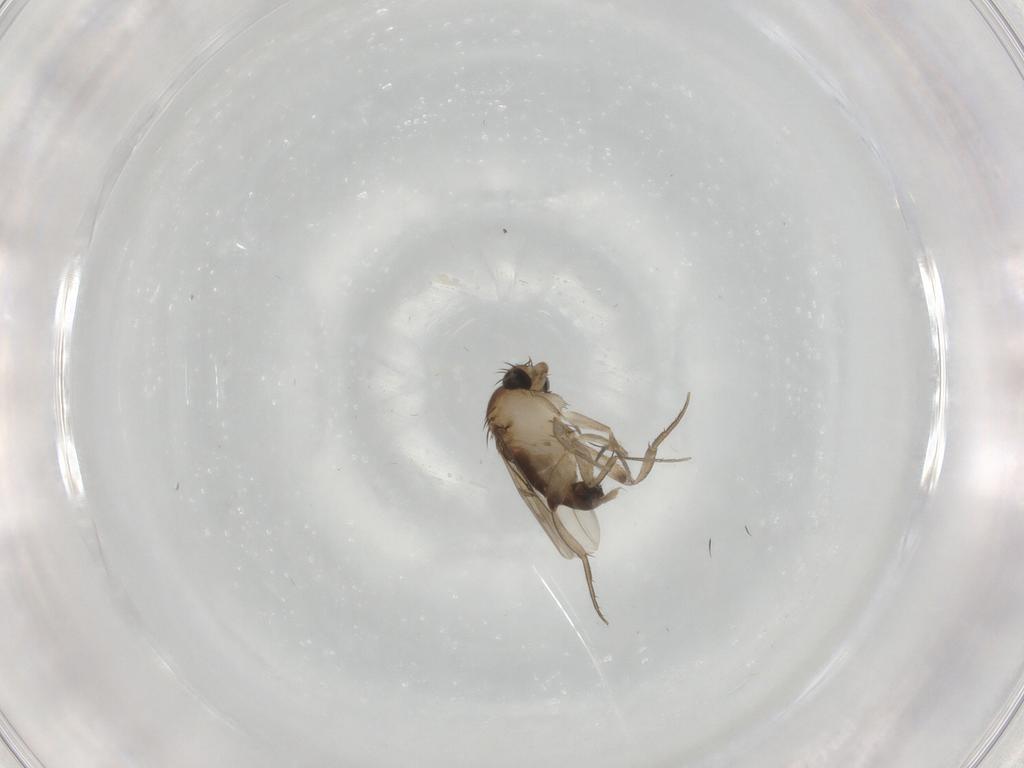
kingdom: Animalia
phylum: Arthropoda
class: Insecta
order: Diptera
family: Phoridae
